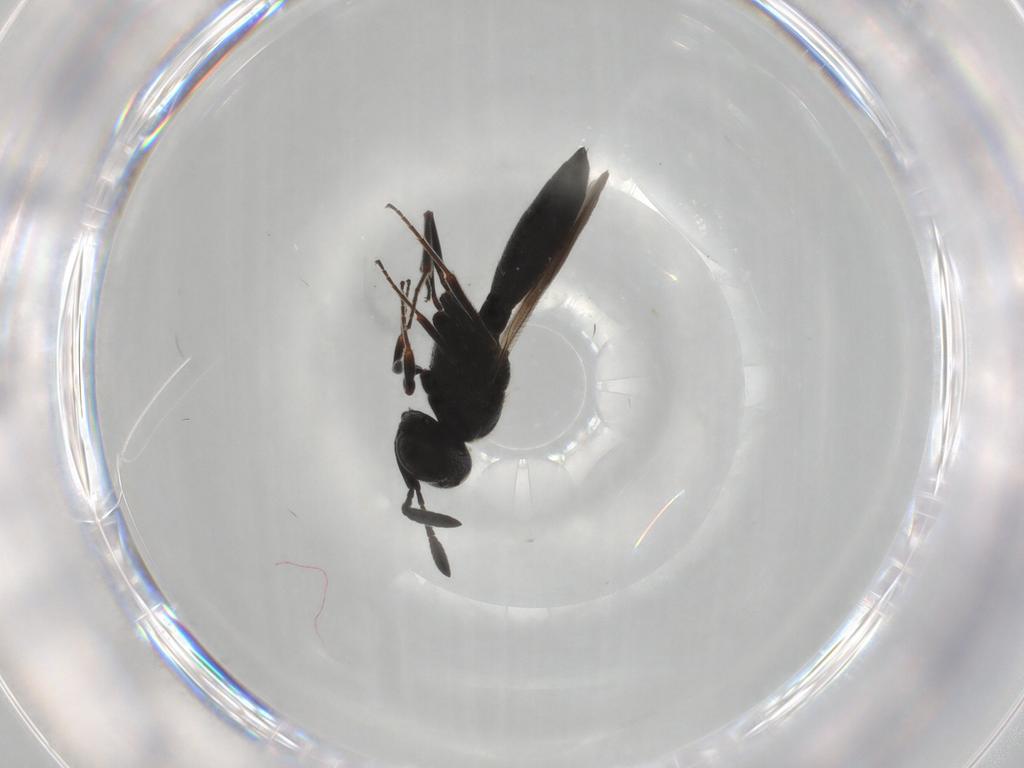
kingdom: Animalia
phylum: Arthropoda
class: Insecta
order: Hymenoptera
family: Scelionidae
